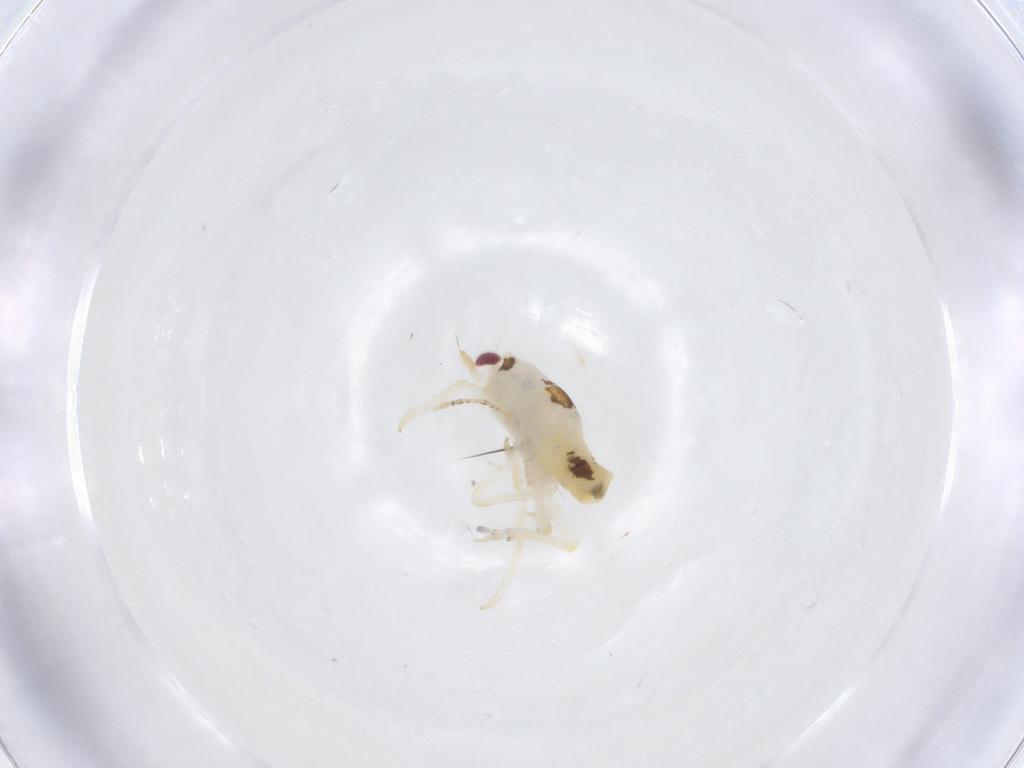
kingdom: Animalia
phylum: Arthropoda
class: Insecta
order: Hemiptera
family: Flatidae
